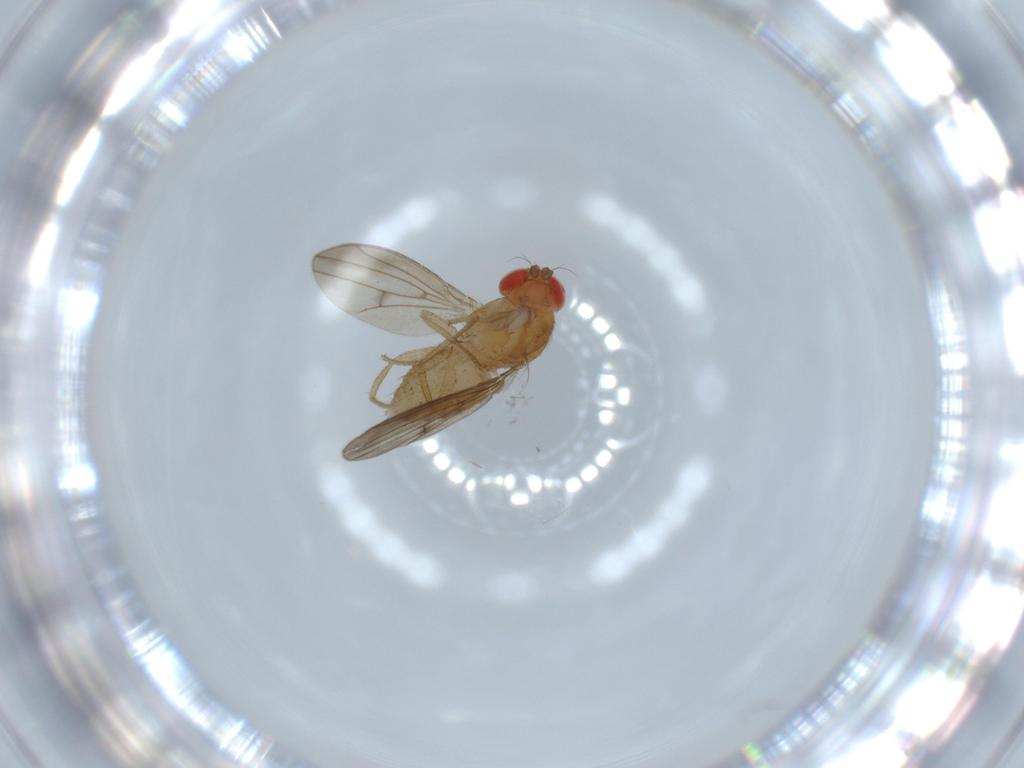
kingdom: Animalia
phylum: Arthropoda
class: Insecta
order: Diptera
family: Drosophilidae
